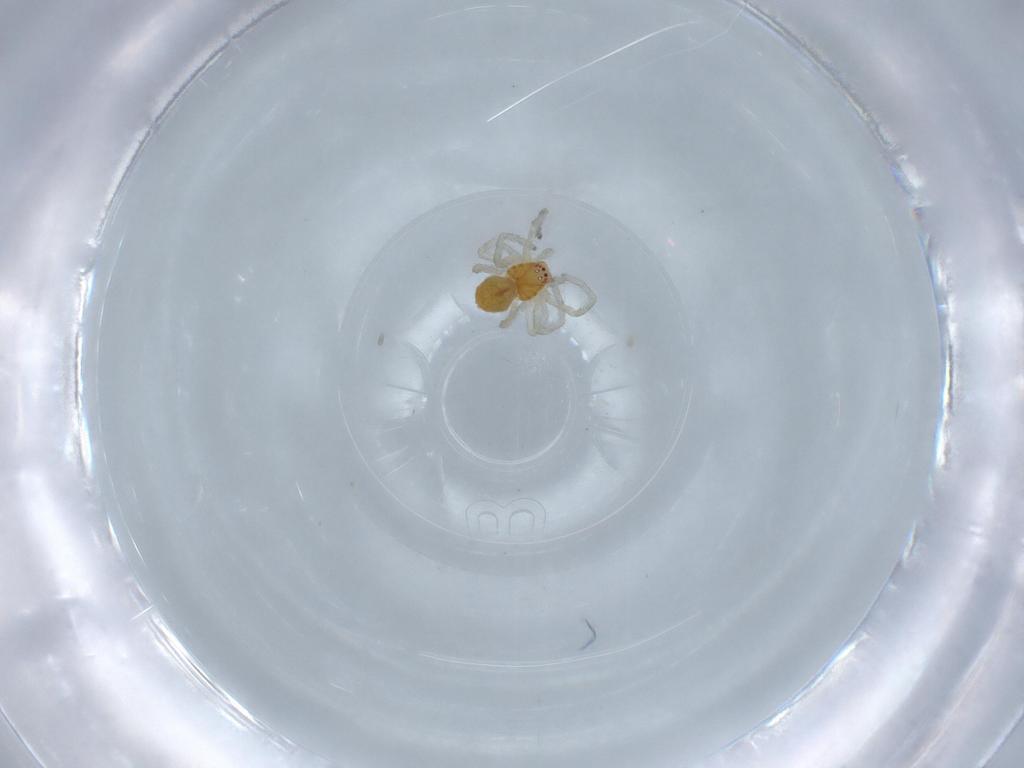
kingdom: Animalia
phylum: Arthropoda
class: Arachnida
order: Araneae
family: Dictynidae
